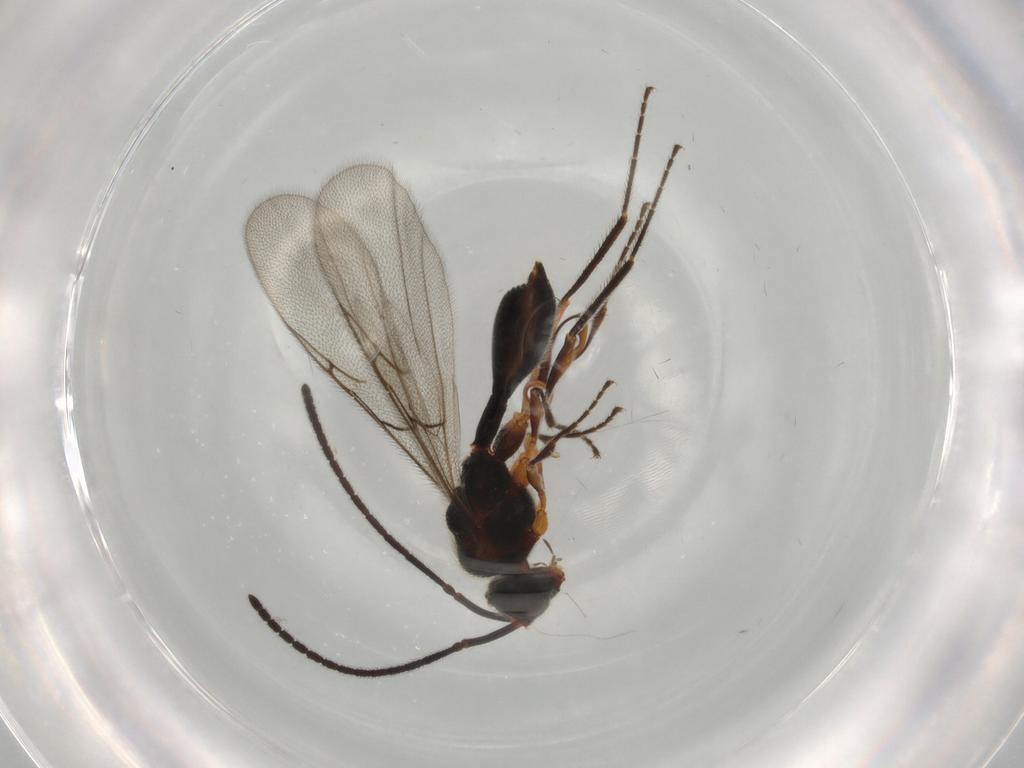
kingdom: Animalia
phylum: Arthropoda
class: Insecta
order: Hymenoptera
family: Diapriidae
